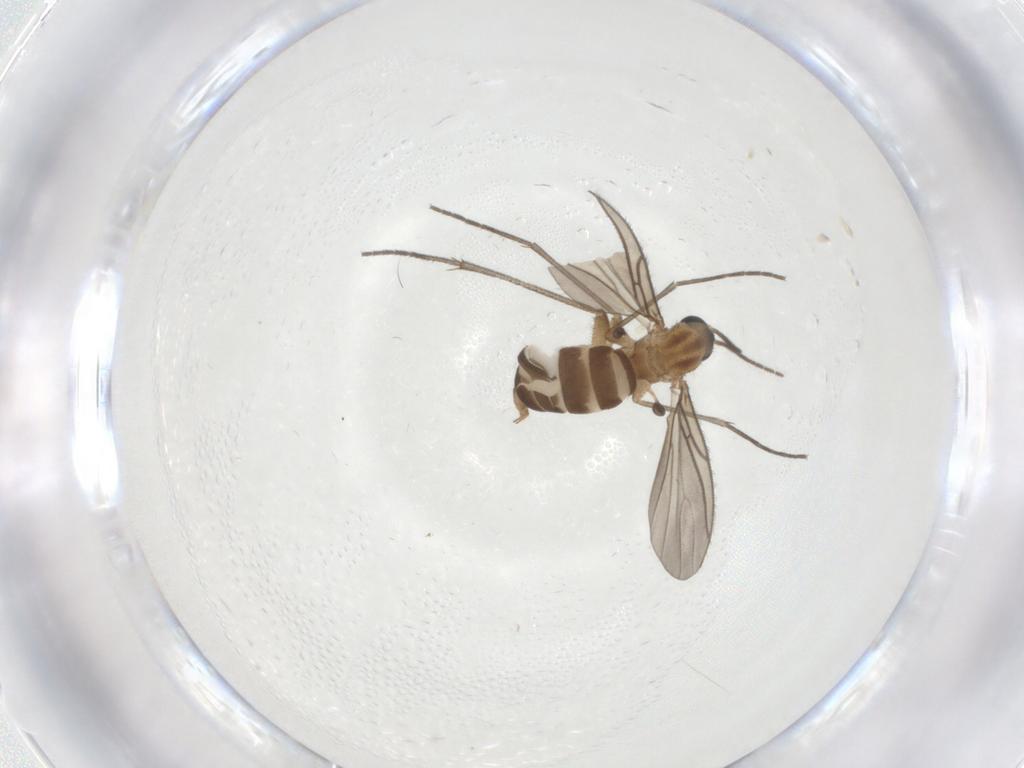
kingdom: Animalia
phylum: Arthropoda
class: Insecta
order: Diptera
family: Sciaridae
